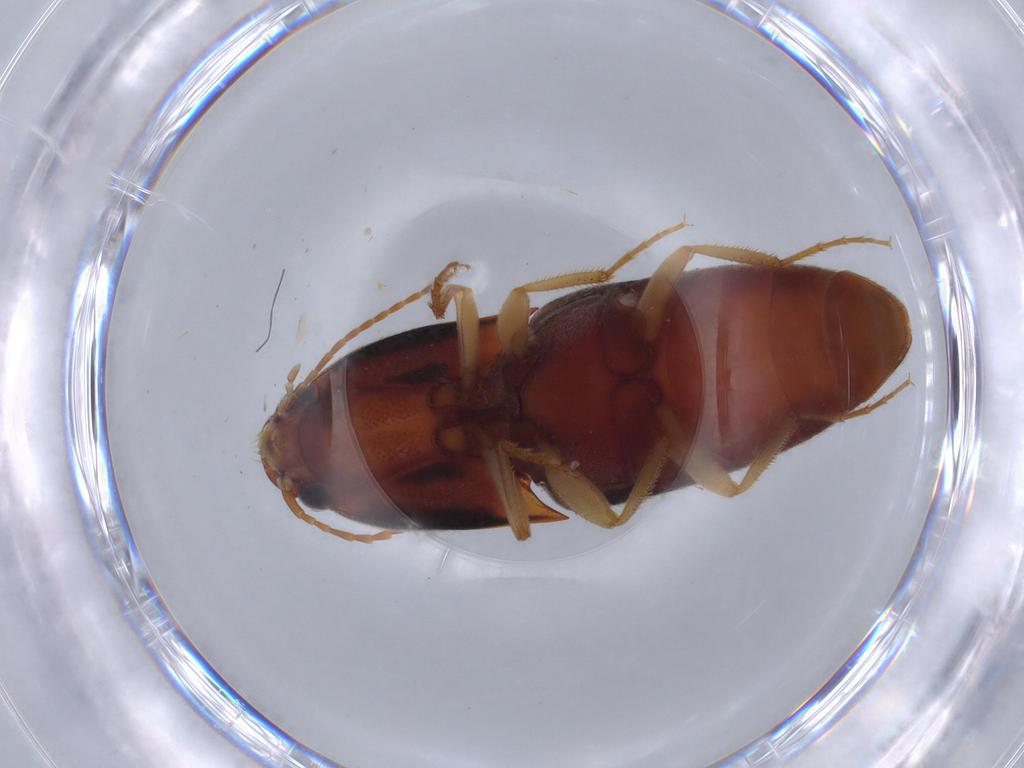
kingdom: Animalia
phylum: Arthropoda
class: Insecta
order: Coleoptera
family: Elateridae
